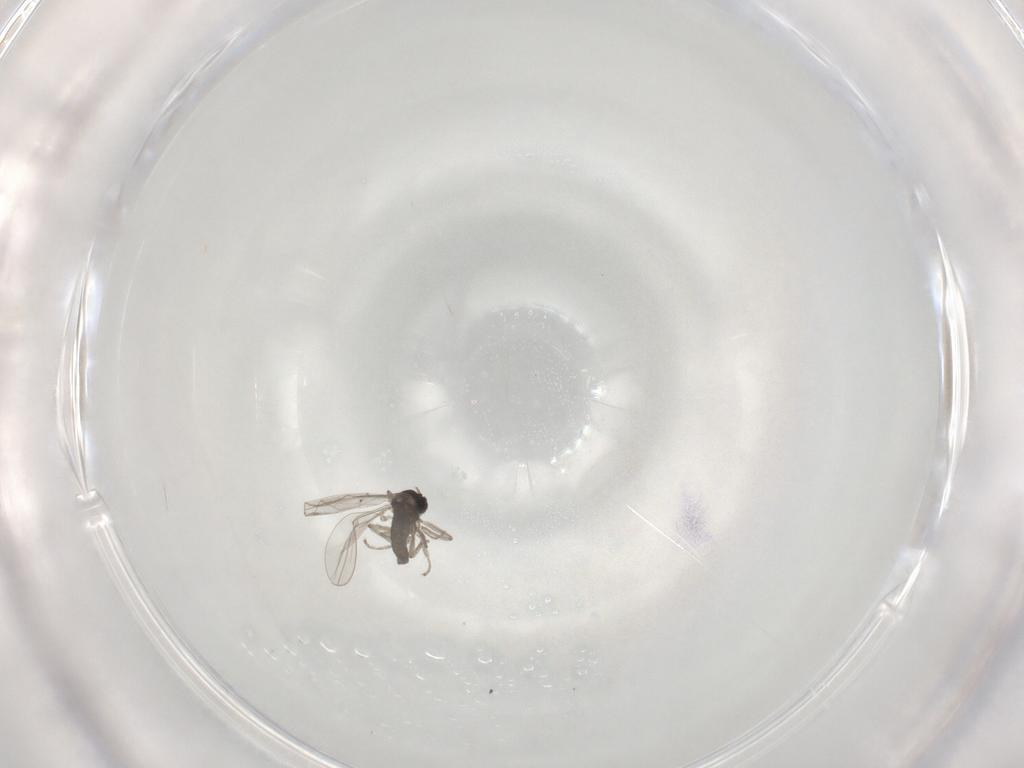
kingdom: Animalia
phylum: Arthropoda
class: Insecta
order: Diptera
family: Cecidomyiidae
